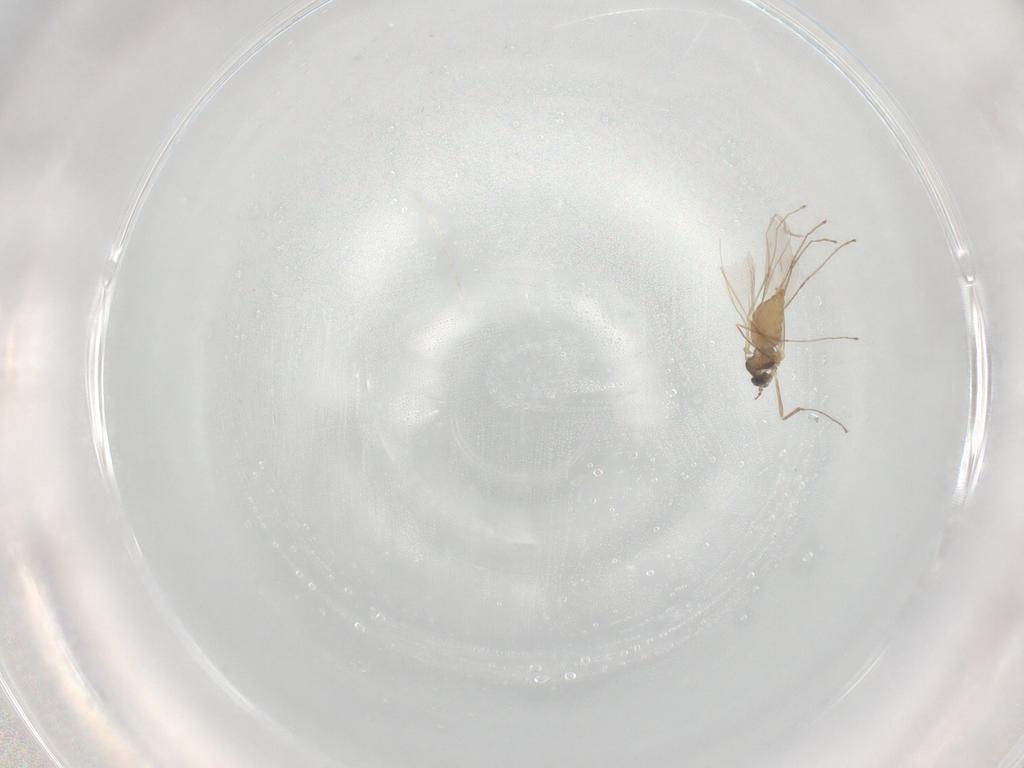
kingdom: Animalia
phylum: Arthropoda
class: Insecta
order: Diptera
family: Cecidomyiidae
